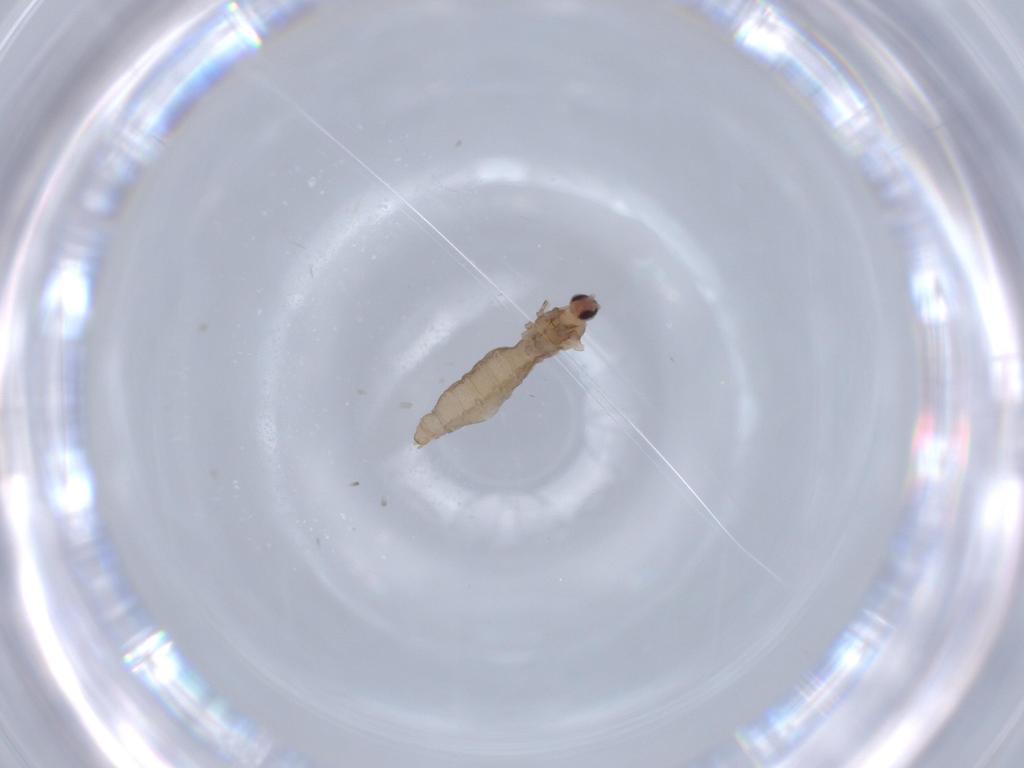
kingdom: Animalia
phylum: Arthropoda
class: Insecta
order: Diptera
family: Cecidomyiidae
